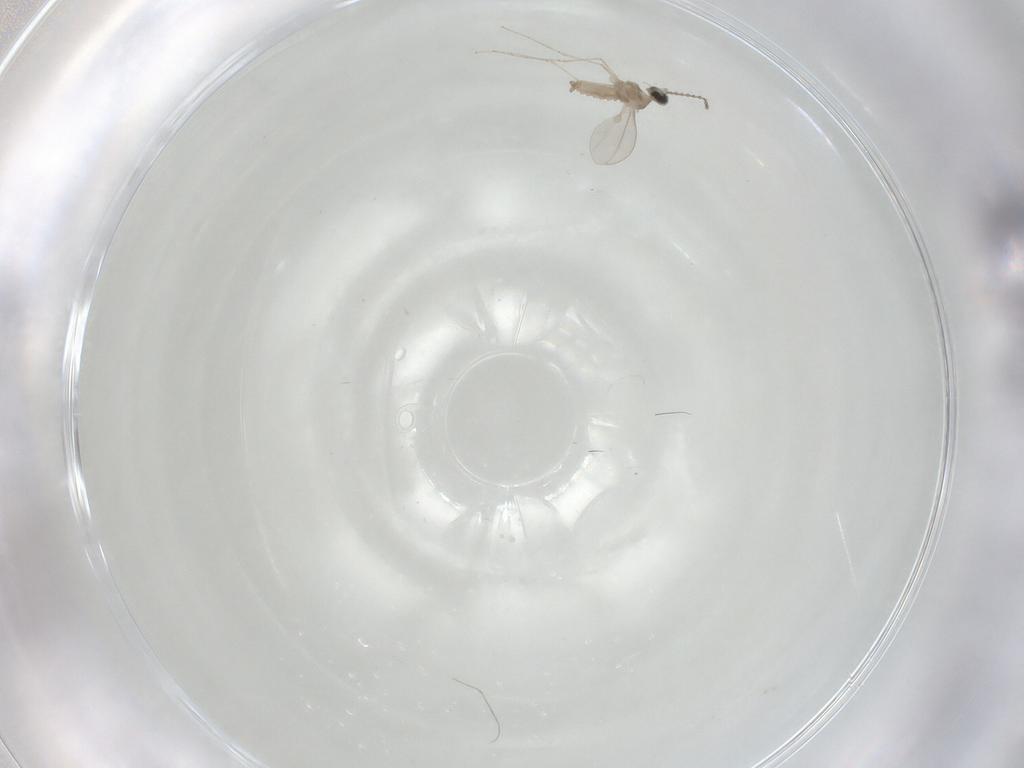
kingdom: Animalia
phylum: Arthropoda
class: Insecta
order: Diptera
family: Cecidomyiidae
